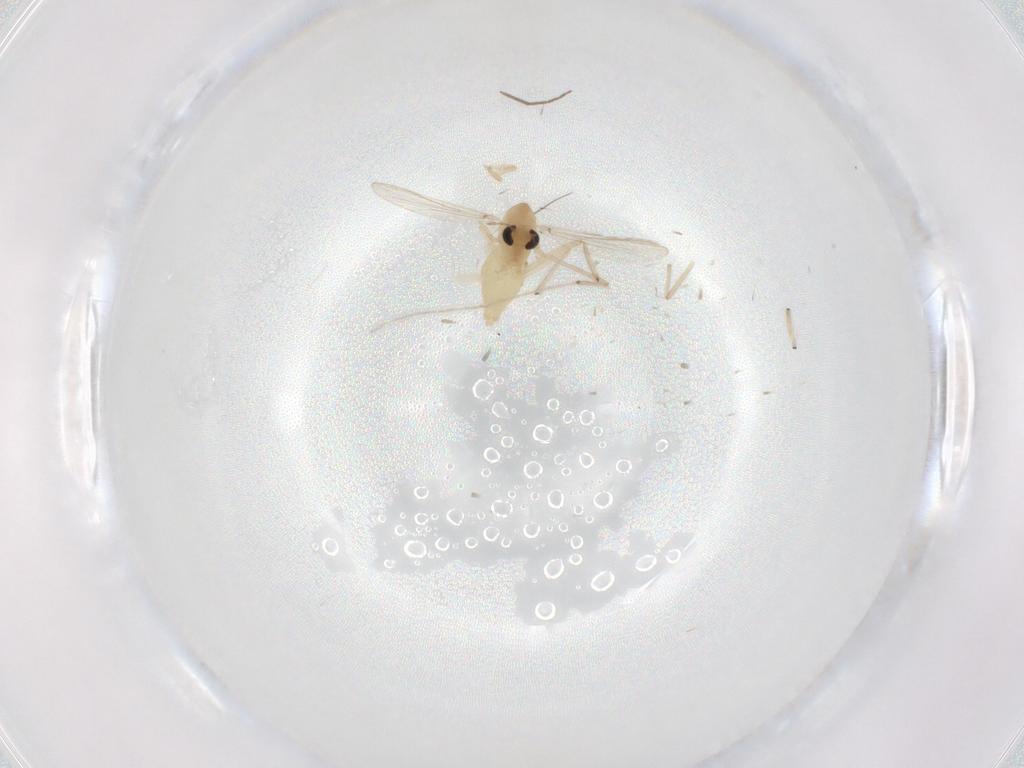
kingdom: Animalia
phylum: Arthropoda
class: Insecta
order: Diptera
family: Chironomidae
